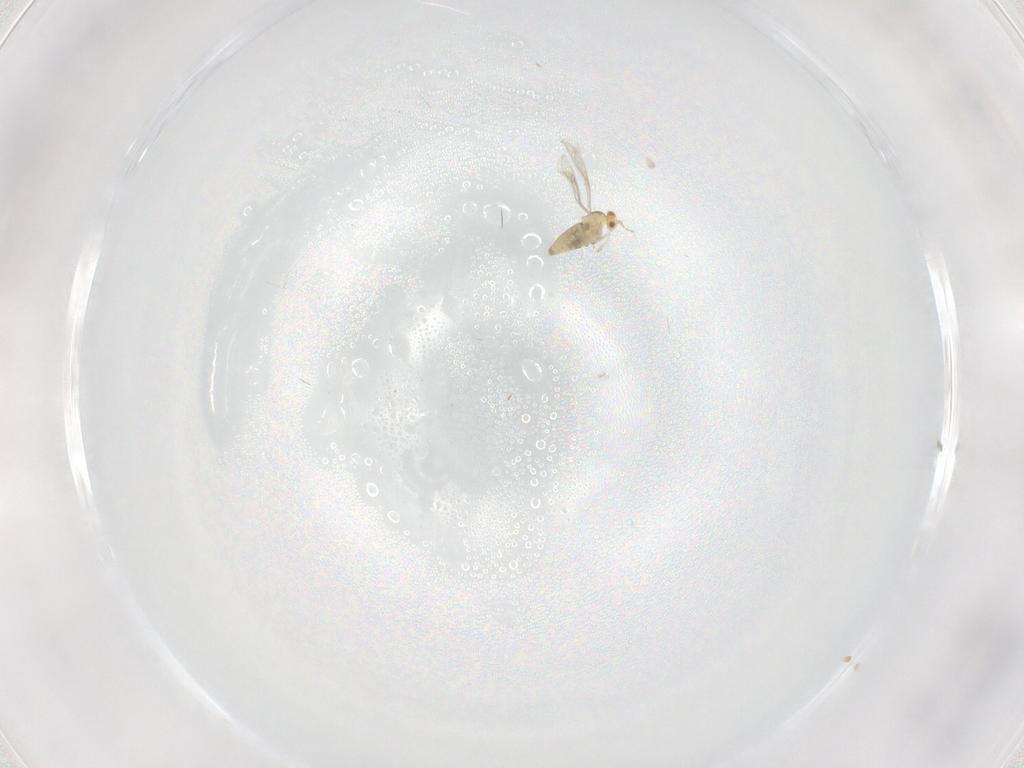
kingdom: Animalia
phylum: Arthropoda
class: Insecta
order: Diptera
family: Cecidomyiidae
